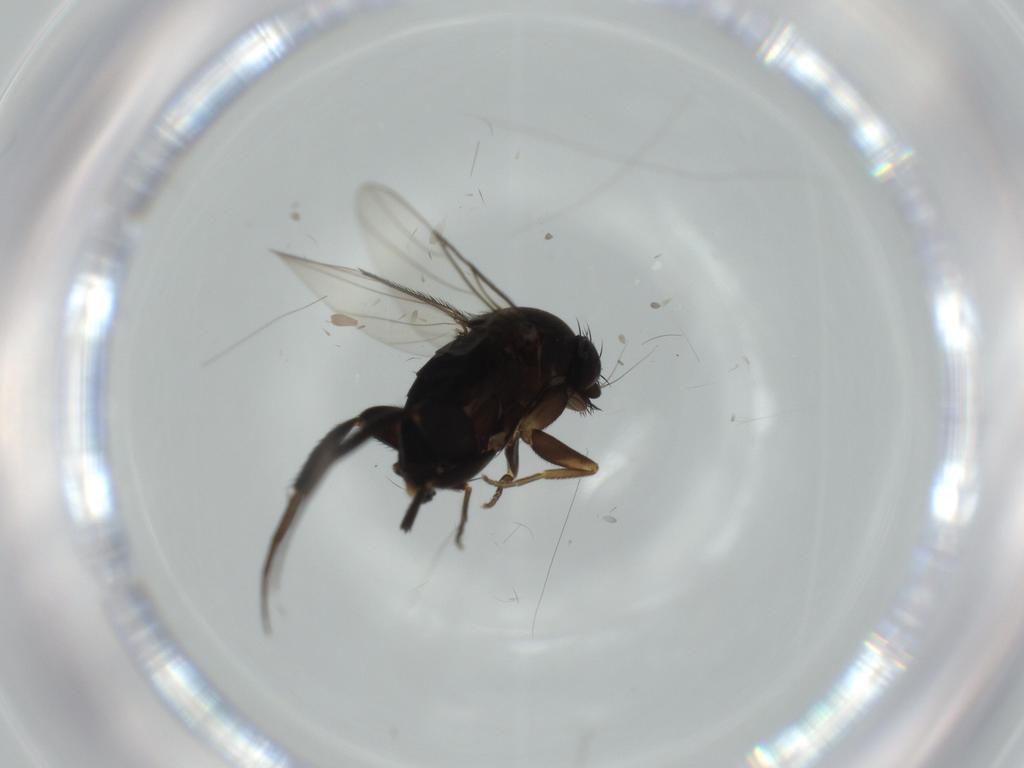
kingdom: Animalia
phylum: Arthropoda
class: Insecta
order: Diptera
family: Phoridae
